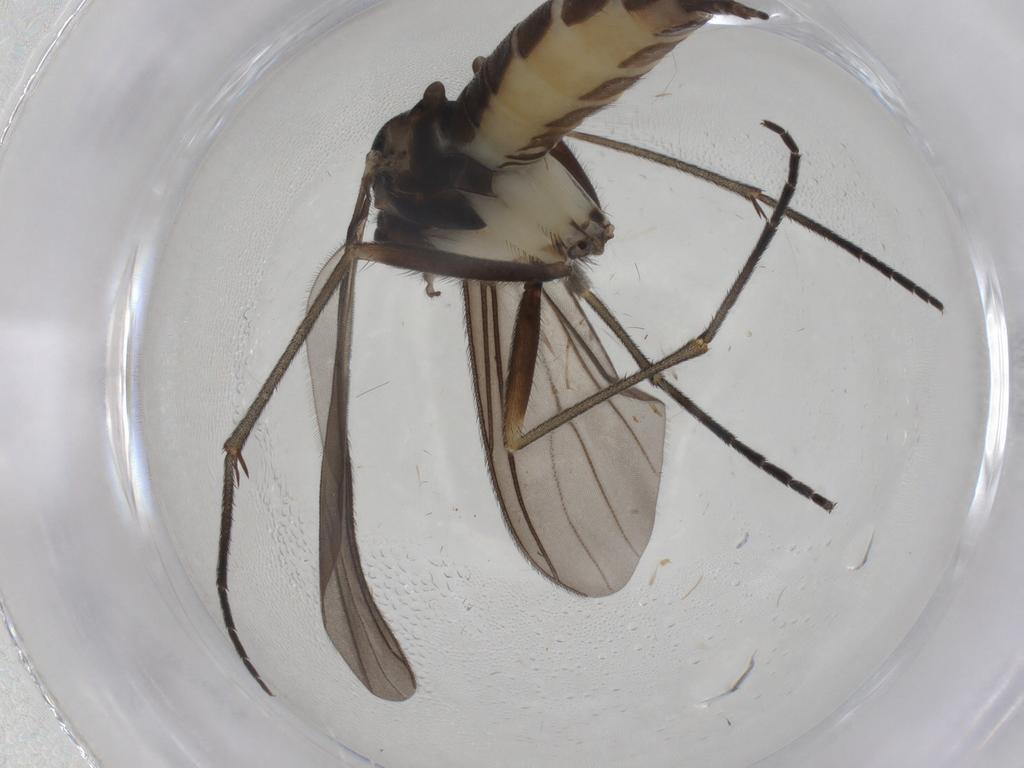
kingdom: Animalia
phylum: Arthropoda
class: Insecta
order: Diptera
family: Sciaridae
